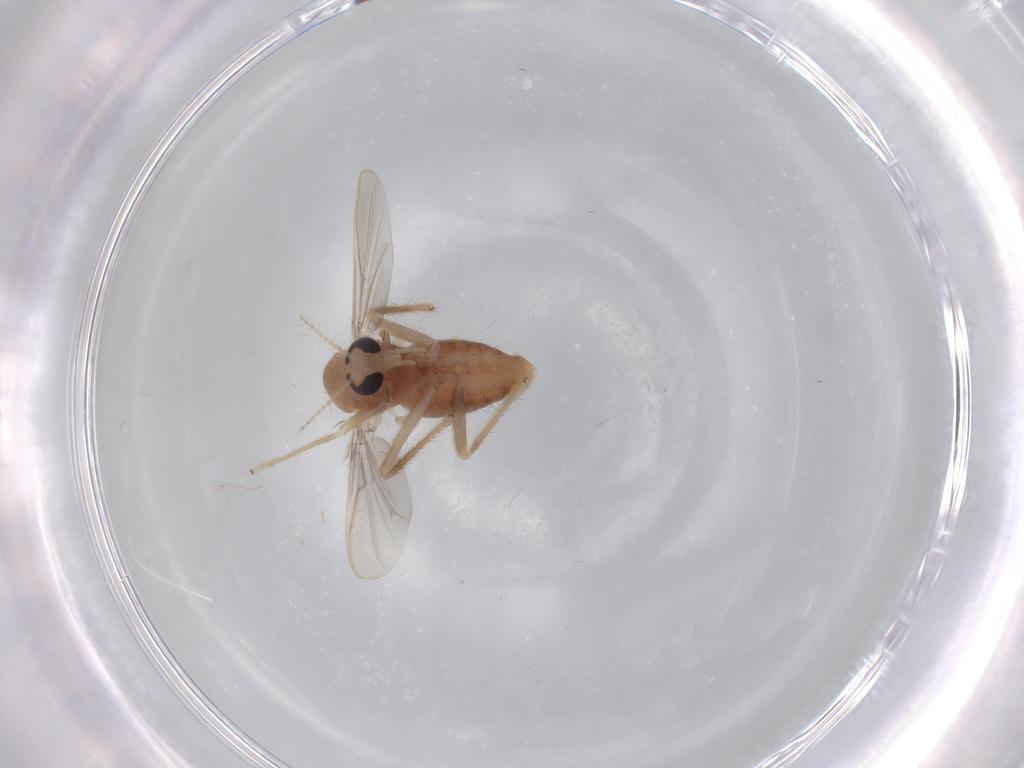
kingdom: Animalia
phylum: Arthropoda
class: Insecta
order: Diptera
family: Chironomidae
